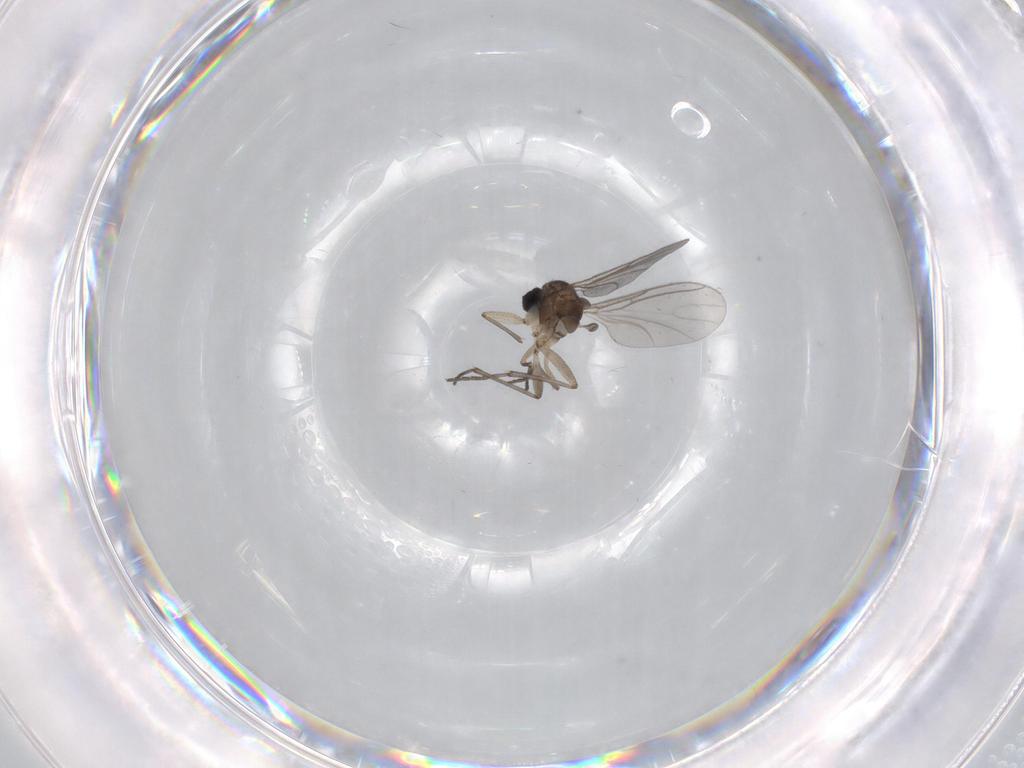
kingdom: Animalia
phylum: Arthropoda
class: Insecta
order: Diptera
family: Sciaridae
